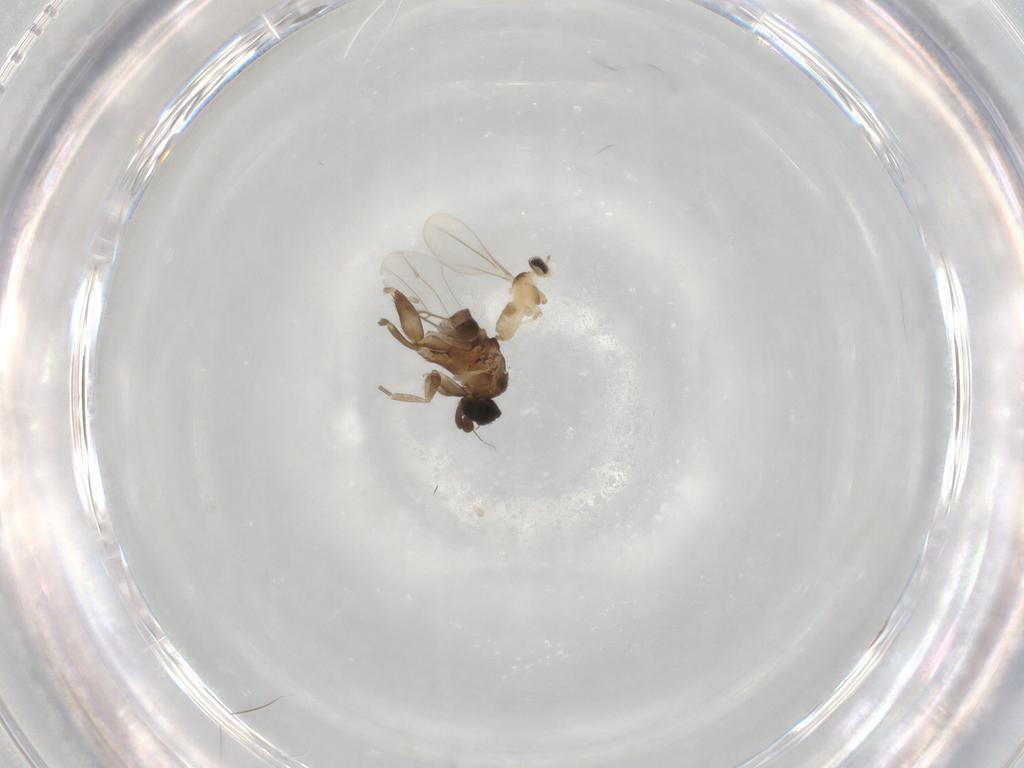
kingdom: Animalia
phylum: Arthropoda
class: Insecta
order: Diptera
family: Phoridae
